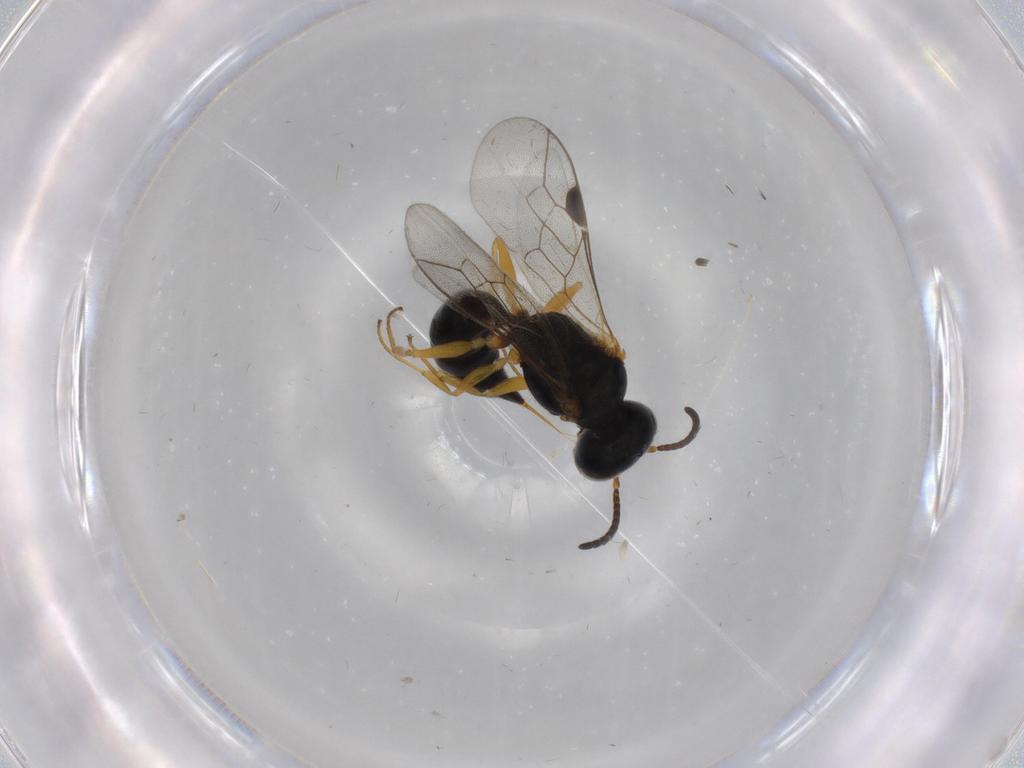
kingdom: Animalia
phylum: Arthropoda
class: Insecta
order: Hymenoptera
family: Pemphredonidae
